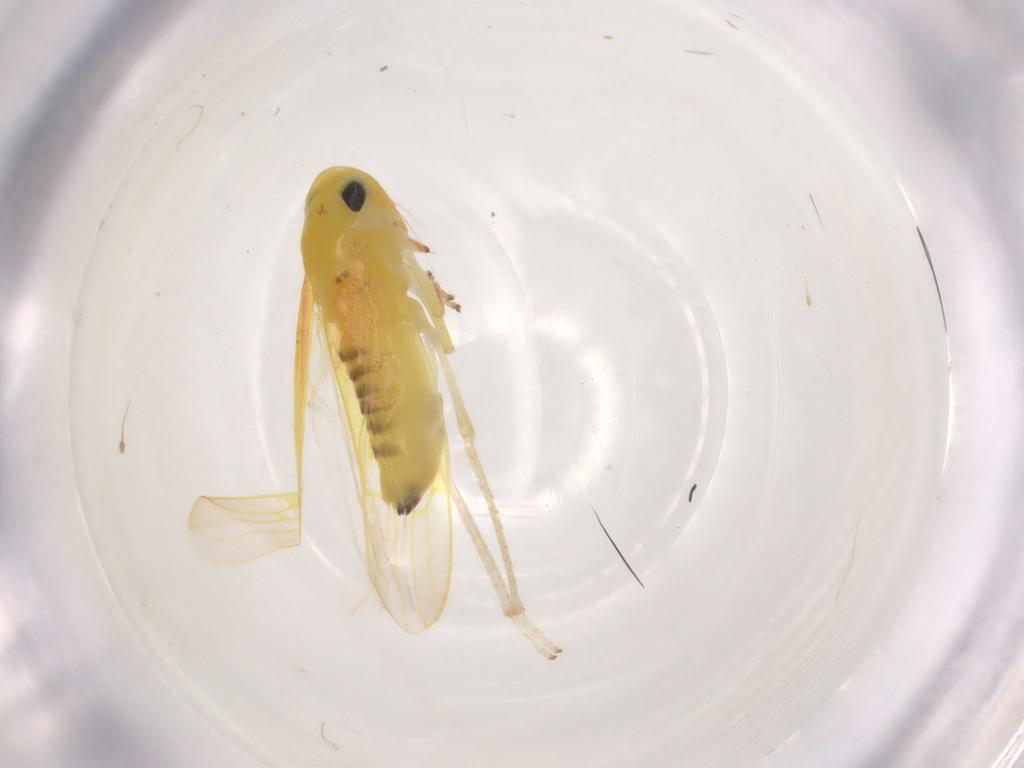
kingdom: Animalia
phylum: Arthropoda
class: Insecta
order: Hemiptera
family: Cicadellidae
